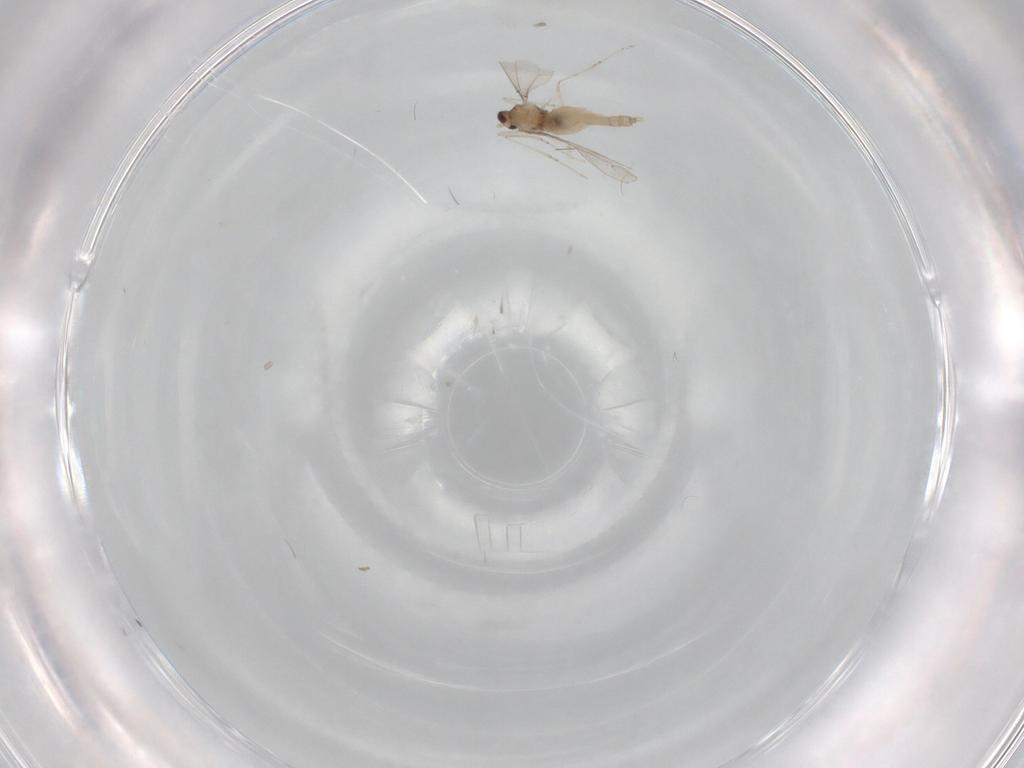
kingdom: Animalia
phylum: Arthropoda
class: Insecta
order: Diptera
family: Cecidomyiidae
